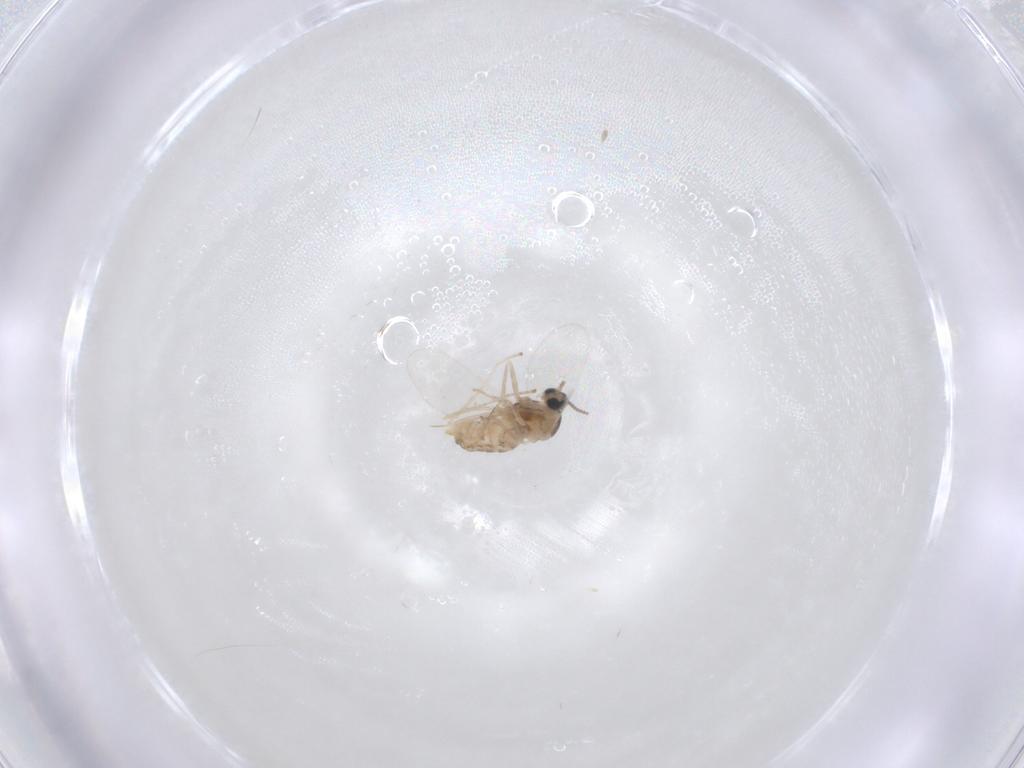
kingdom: Animalia
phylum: Arthropoda
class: Insecta
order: Diptera
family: Cecidomyiidae
